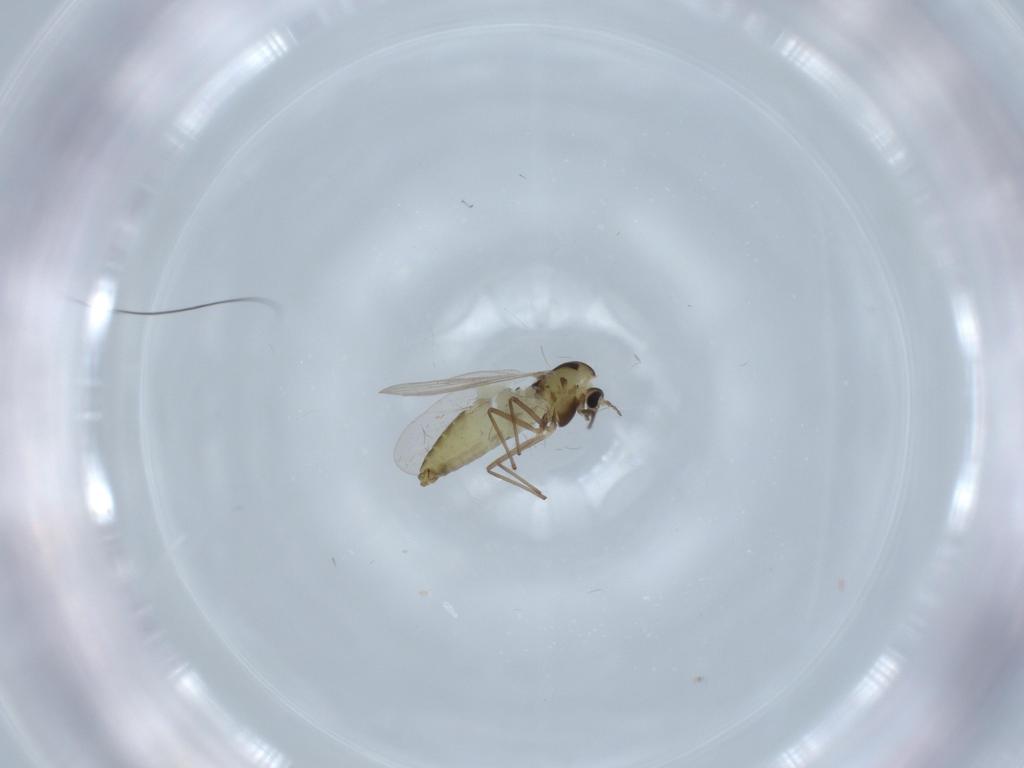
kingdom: Animalia
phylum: Arthropoda
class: Insecta
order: Diptera
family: Chironomidae
